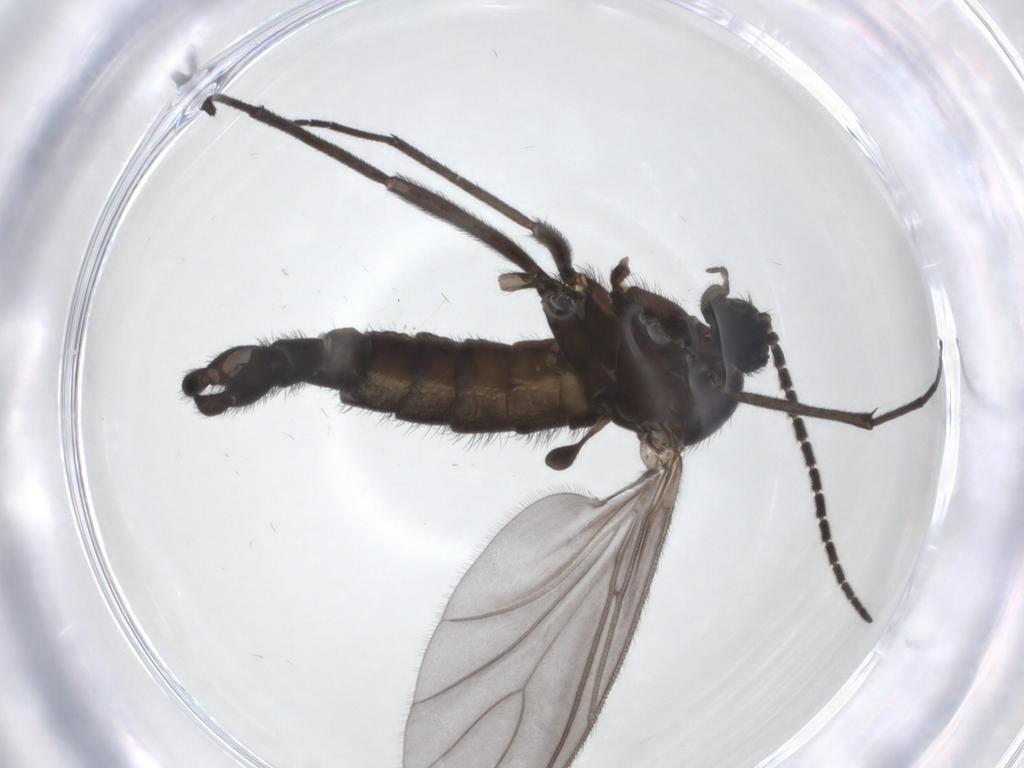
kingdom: Animalia
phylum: Arthropoda
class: Insecta
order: Diptera
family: Sciaridae
